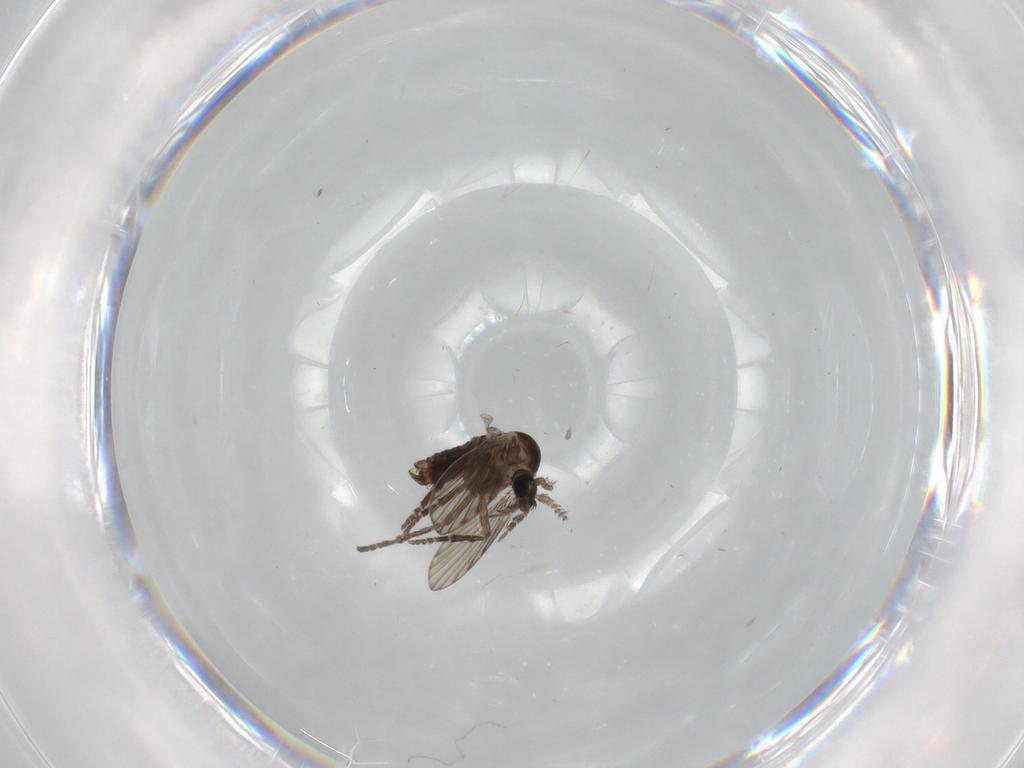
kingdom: Animalia
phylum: Arthropoda
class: Insecta
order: Diptera
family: Psychodidae
